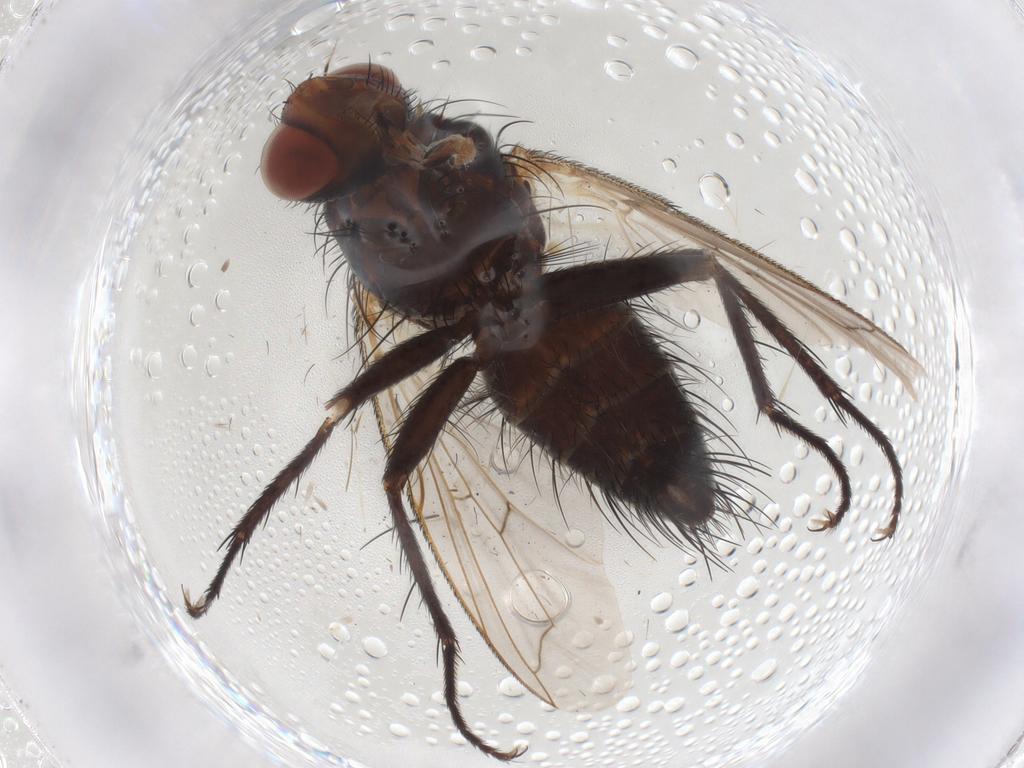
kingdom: Animalia
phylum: Arthropoda
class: Insecta
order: Diptera
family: Tachinidae
